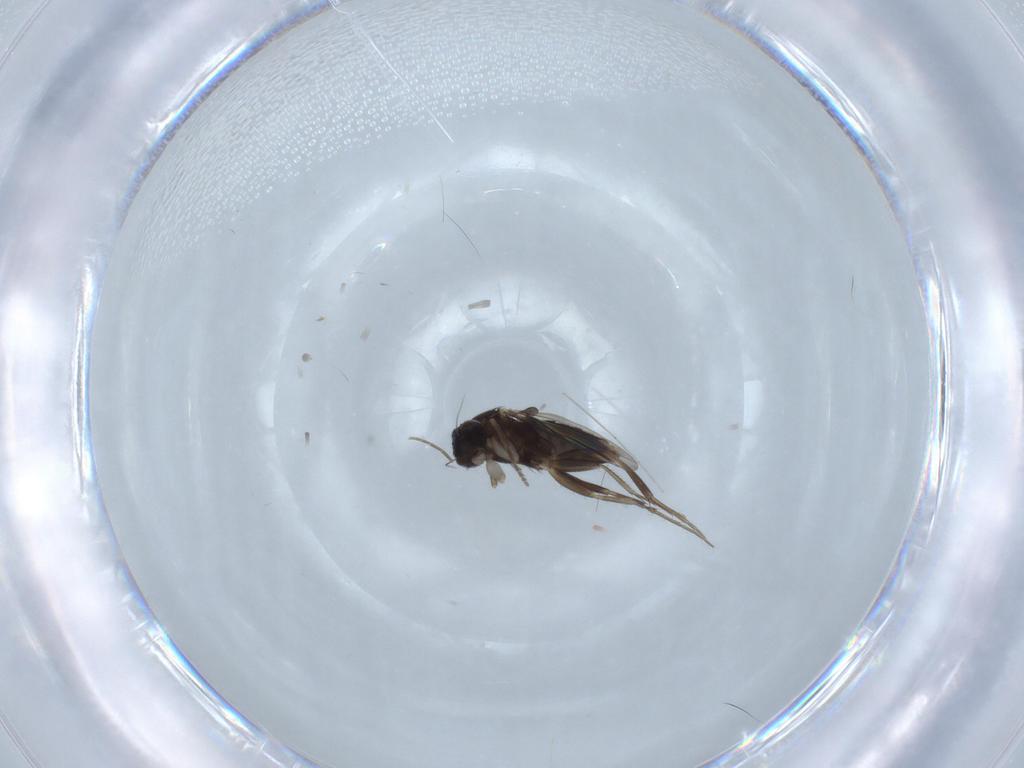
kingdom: Animalia
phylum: Arthropoda
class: Insecta
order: Diptera
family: Phoridae
